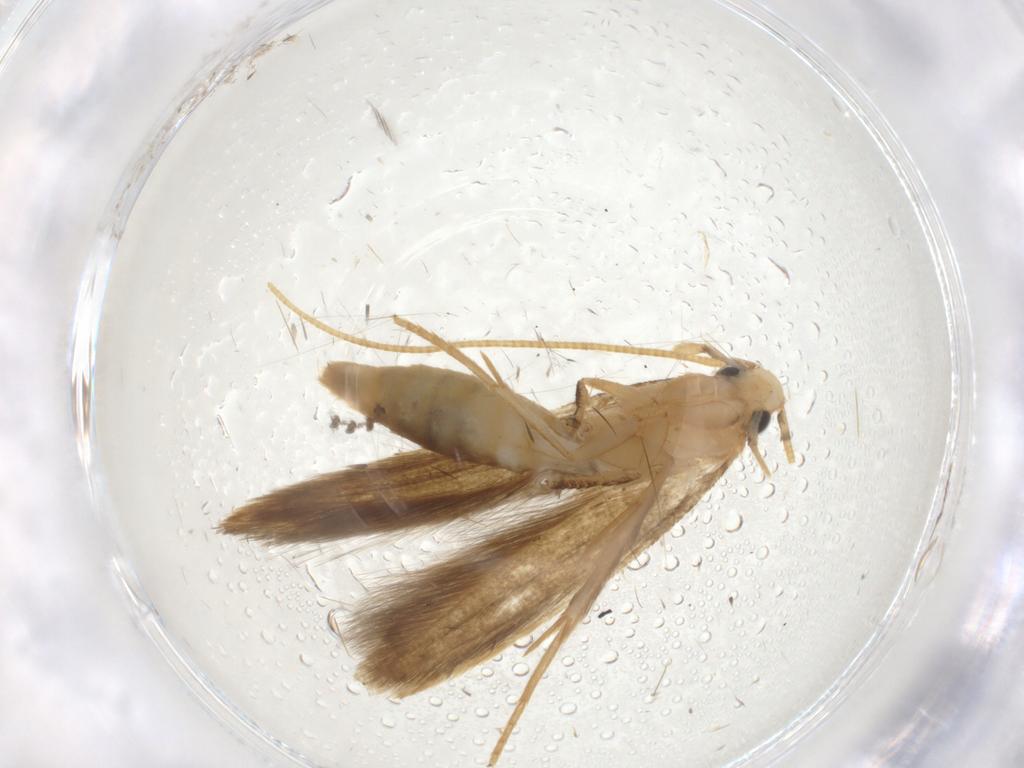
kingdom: Animalia
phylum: Arthropoda
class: Insecta
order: Lepidoptera
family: Cosmopterigidae
